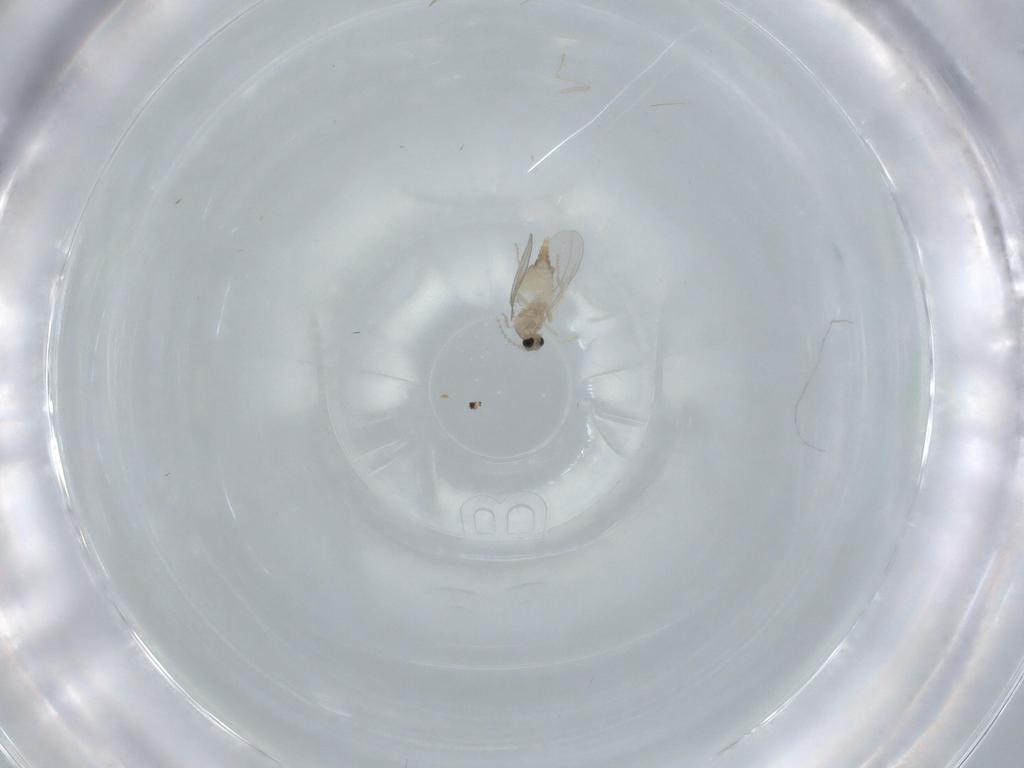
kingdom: Animalia
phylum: Arthropoda
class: Insecta
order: Diptera
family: Cecidomyiidae
